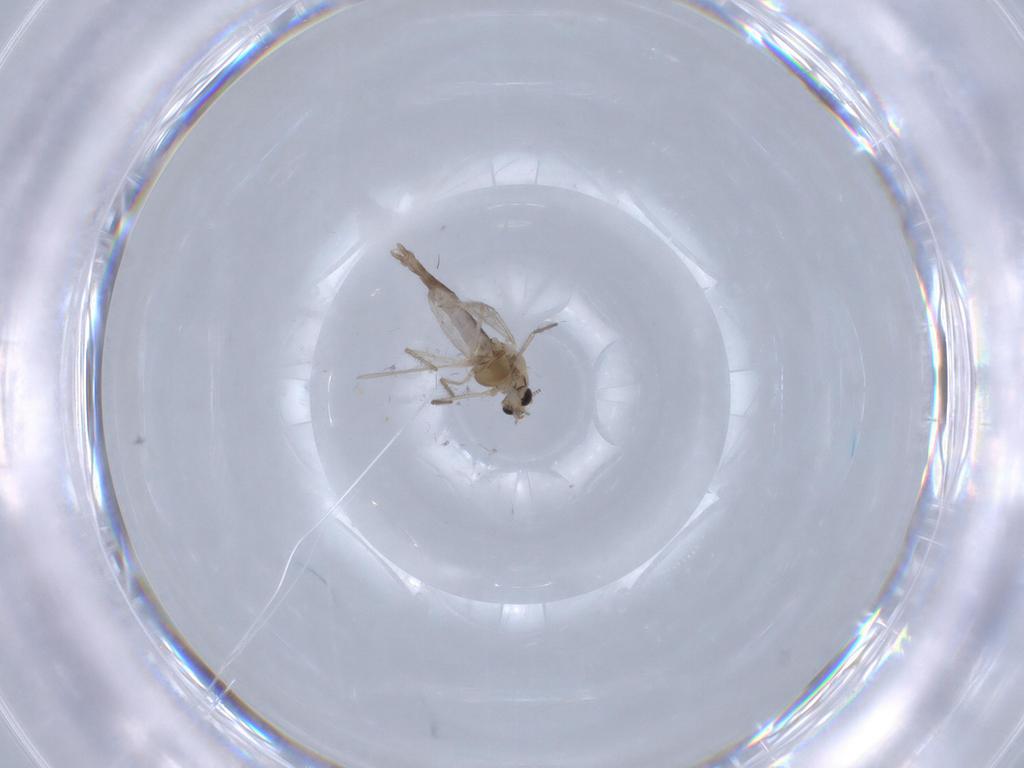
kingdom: Animalia
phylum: Arthropoda
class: Insecta
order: Diptera
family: Chironomidae
